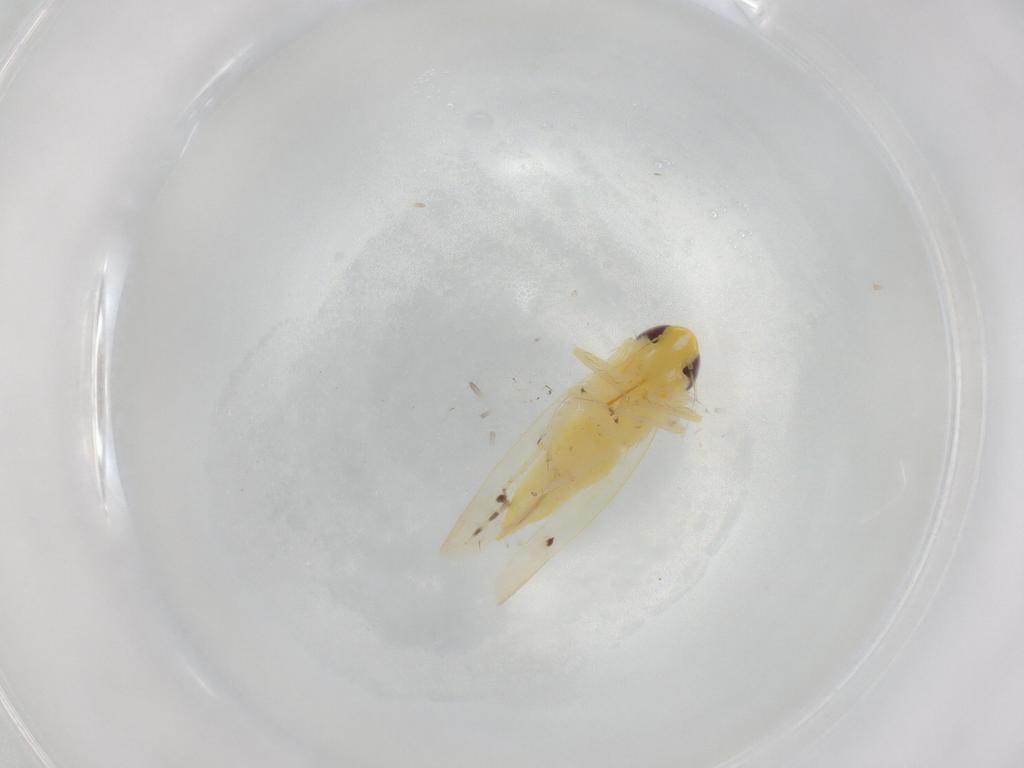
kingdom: Animalia
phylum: Arthropoda
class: Insecta
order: Hemiptera
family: Cicadellidae
